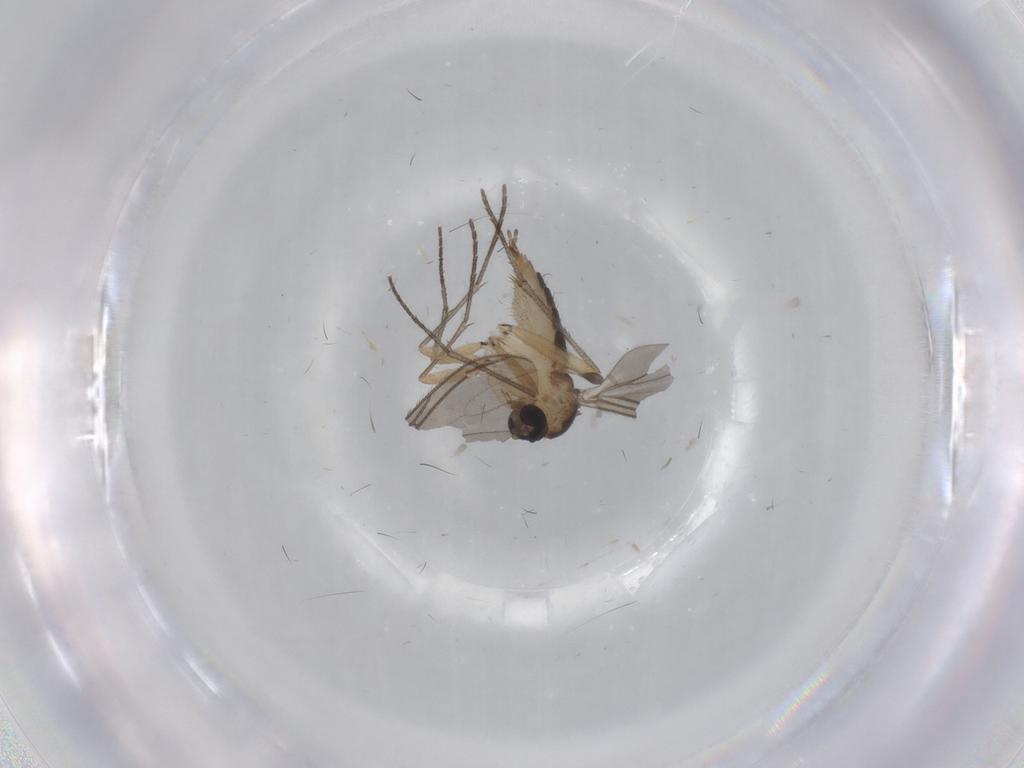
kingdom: Animalia
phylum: Arthropoda
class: Insecta
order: Diptera
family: Sciaridae
